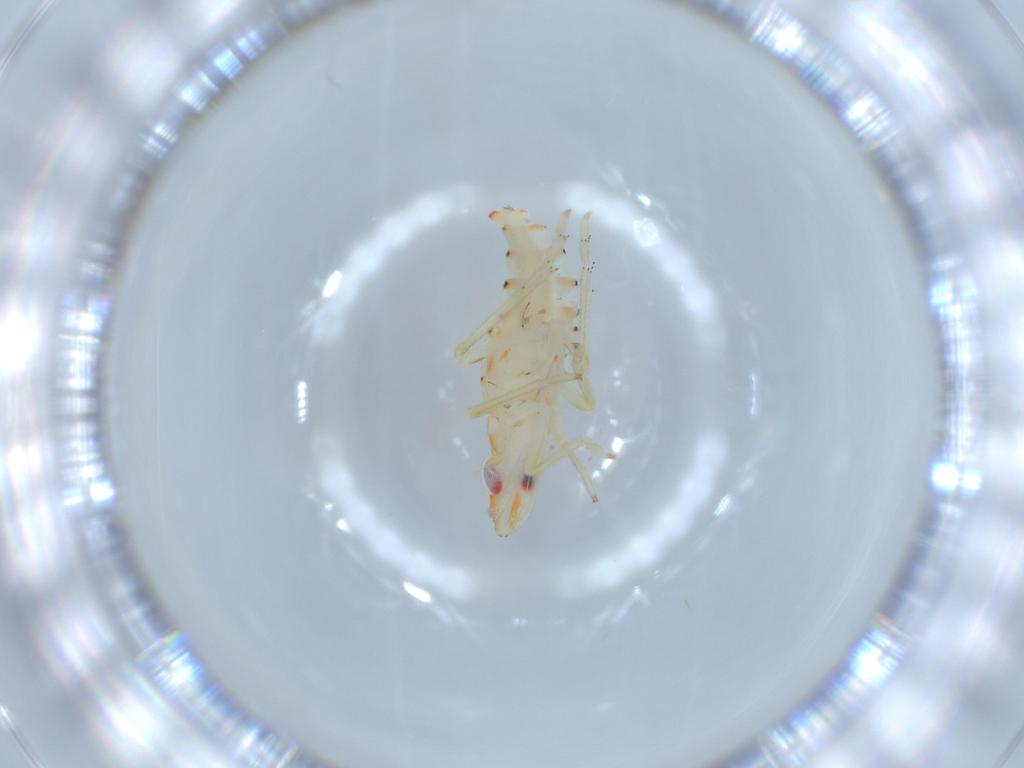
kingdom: Animalia
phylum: Arthropoda
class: Insecta
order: Hemiptera
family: Tropiduchidae
